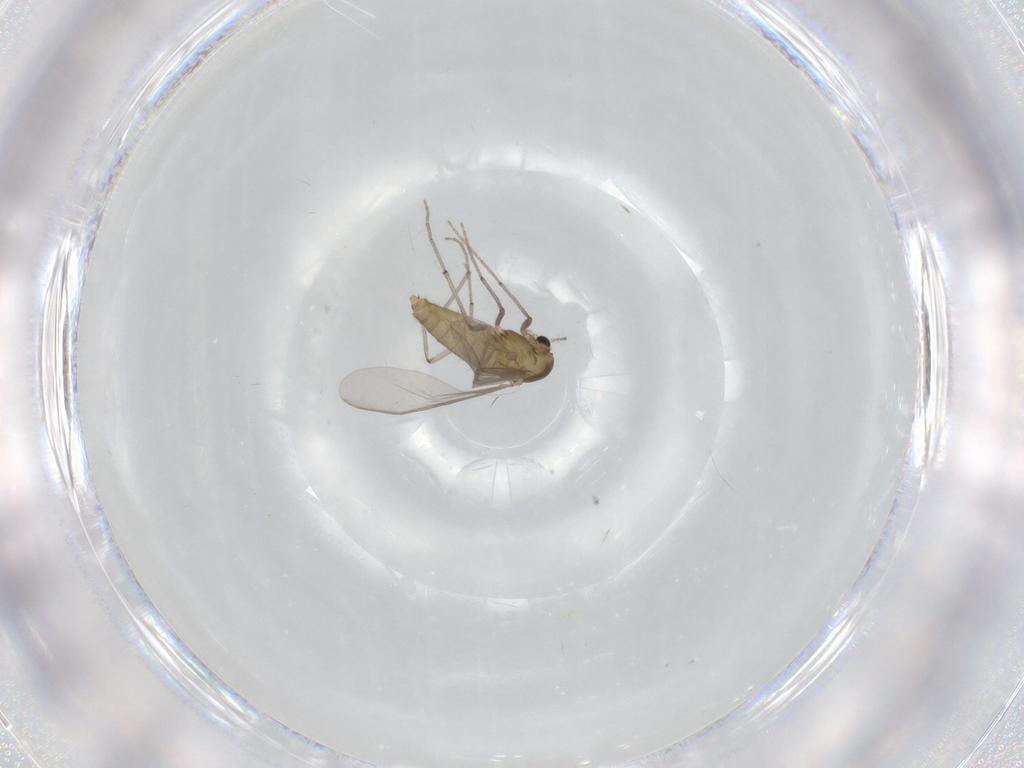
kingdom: Animalia
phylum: Arthropoda
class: Insecta
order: Diptera
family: Chironomidae
